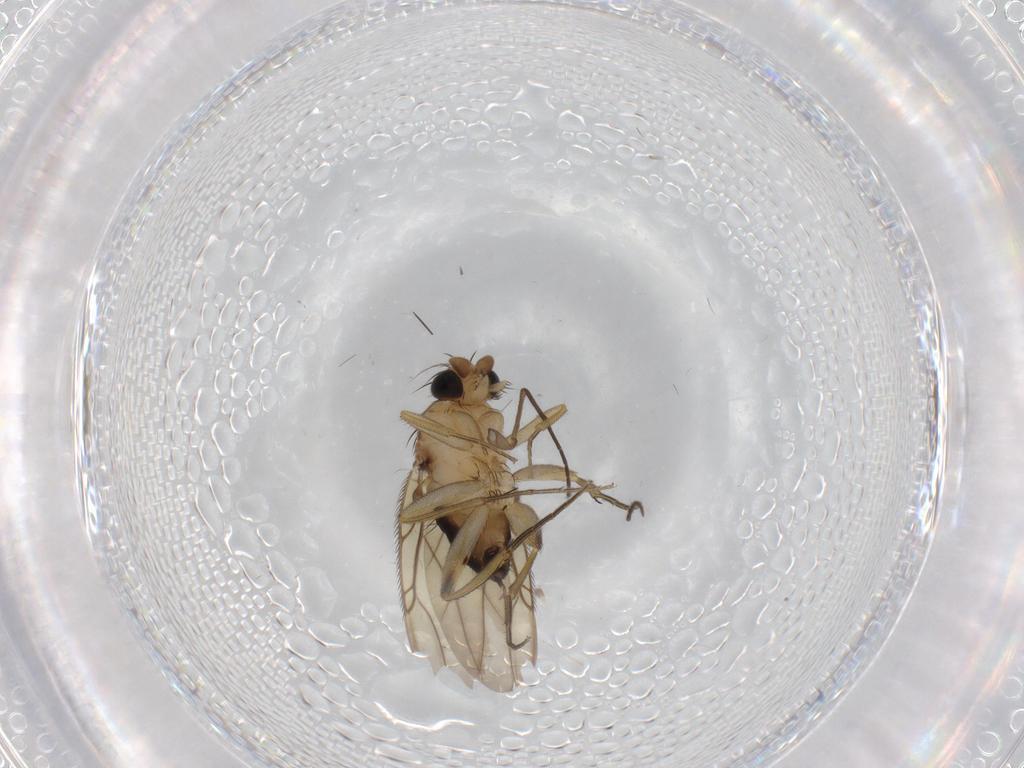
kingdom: Animalia
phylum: Arthropoda
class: Insecta
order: Diptera
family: Phoridae
